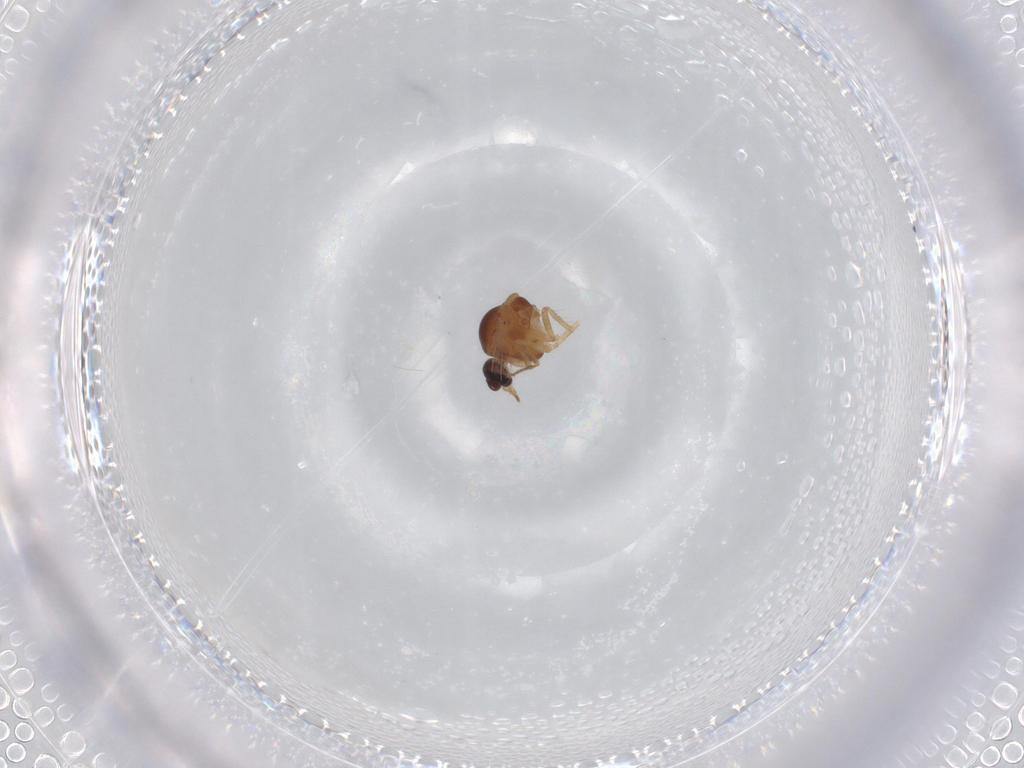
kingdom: Animalia
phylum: Arthropoda
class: Insecta
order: Diptera
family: Ceratopogonidae
